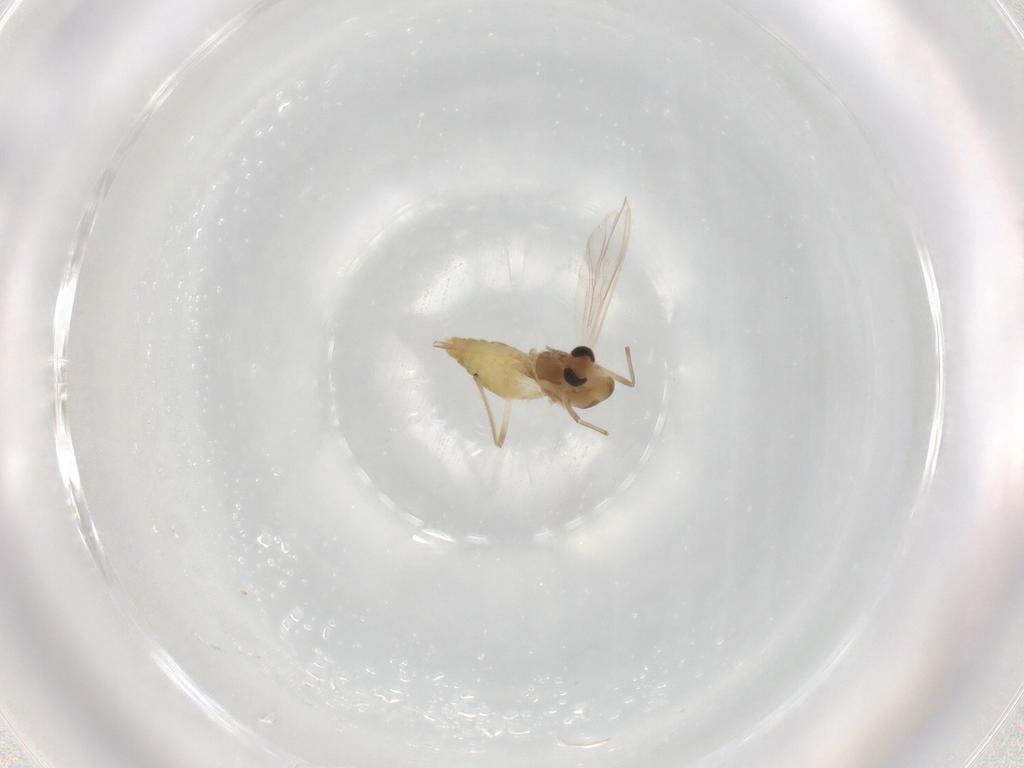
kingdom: Animalia
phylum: Arthropoda
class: Insecta
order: Diptera
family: Chironomidae
